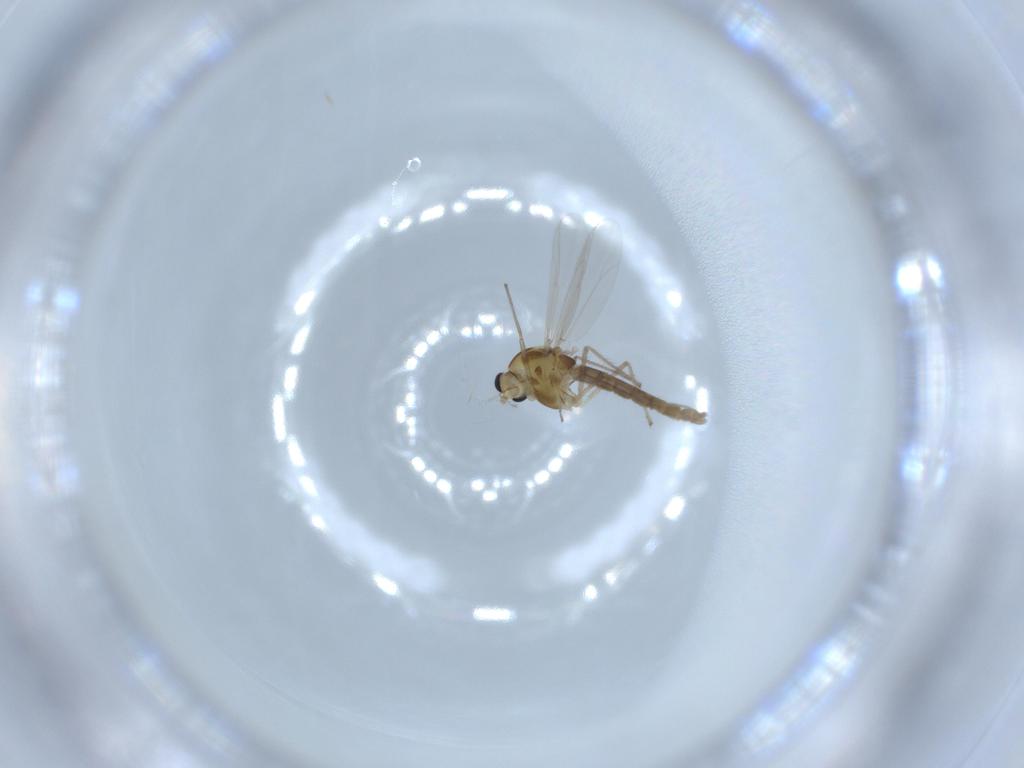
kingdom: Animalia
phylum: Arthropoda
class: Insecta
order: Diptera
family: Chironomidae
